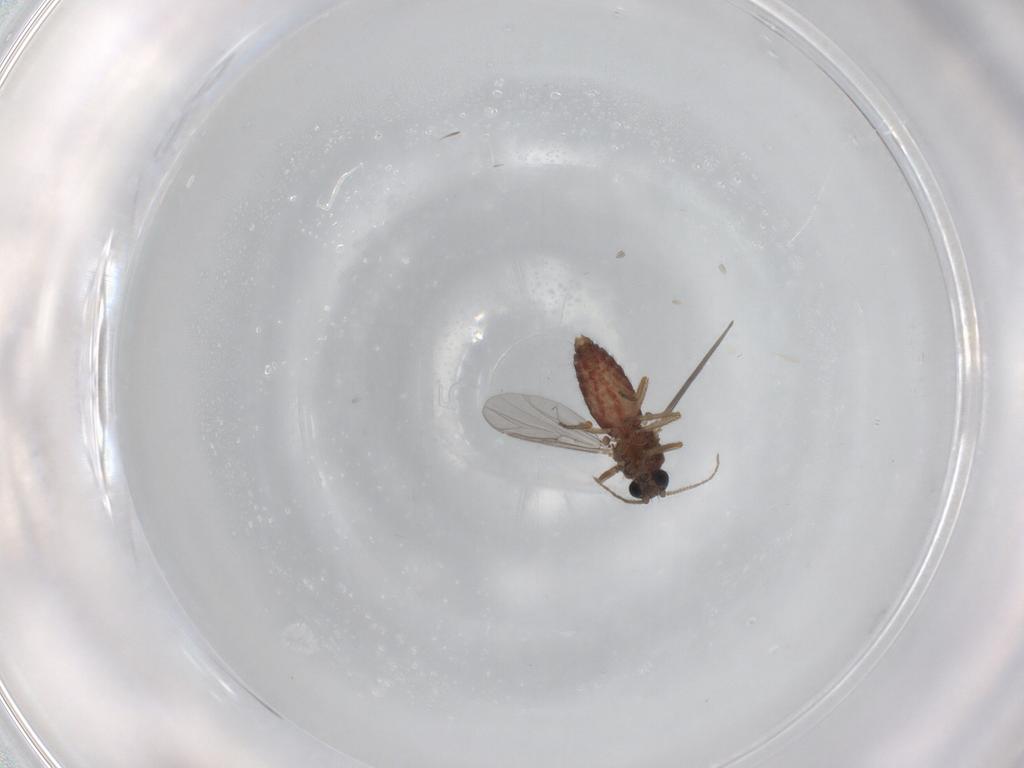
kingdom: Animalia
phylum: Arthropoda
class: Insecta
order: Diptera
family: Ceratopogonidae
